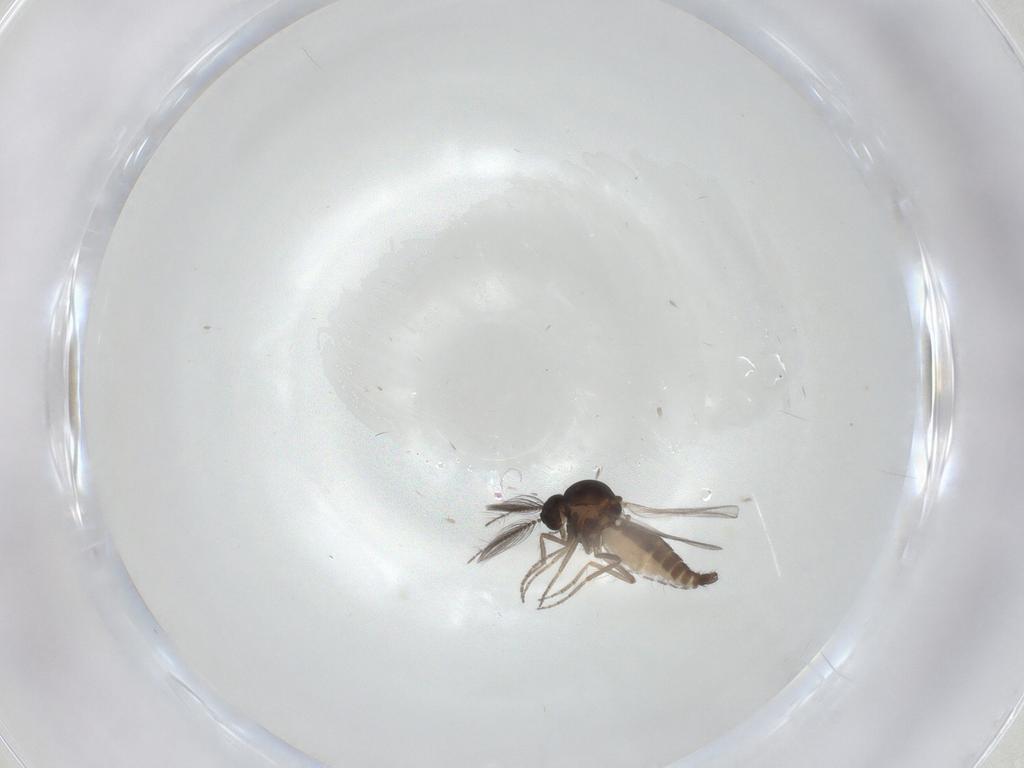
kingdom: Animalia
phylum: Arthropoda
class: Insecta
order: Diptera
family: Ceratopogonidae
